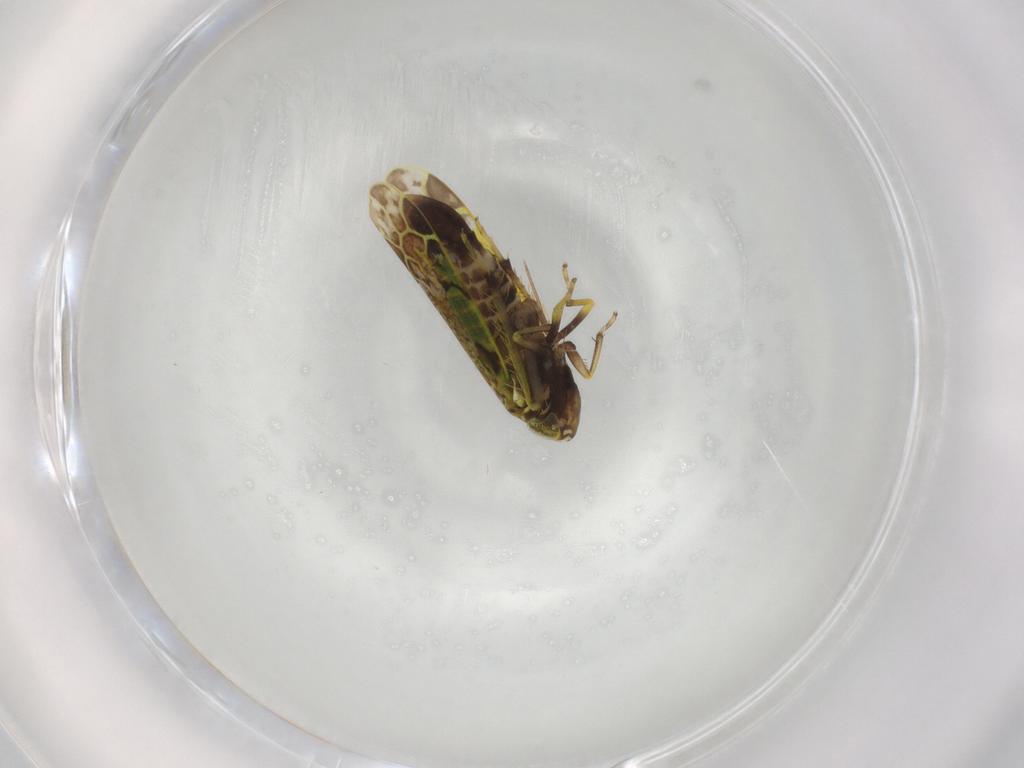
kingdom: Animalia
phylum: Arthropoda
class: Insecta
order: Hemiptera
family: Cicadellidae
